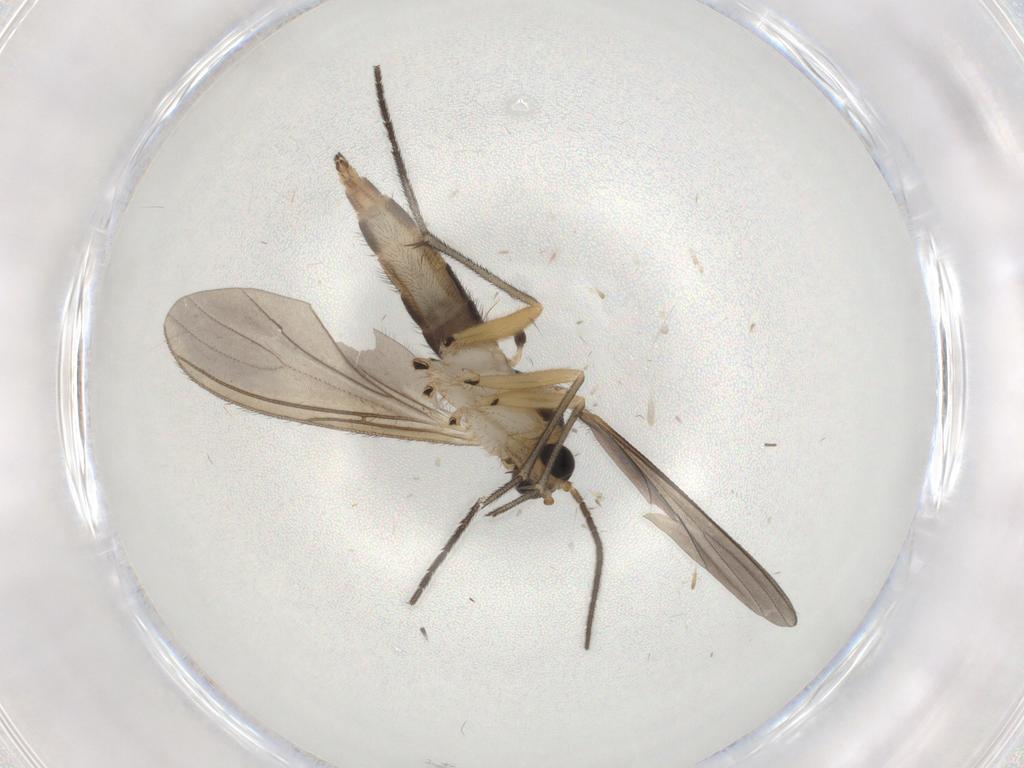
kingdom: Animalia
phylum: Arthropoda
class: Insecta
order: Diptera
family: Sciaridae
